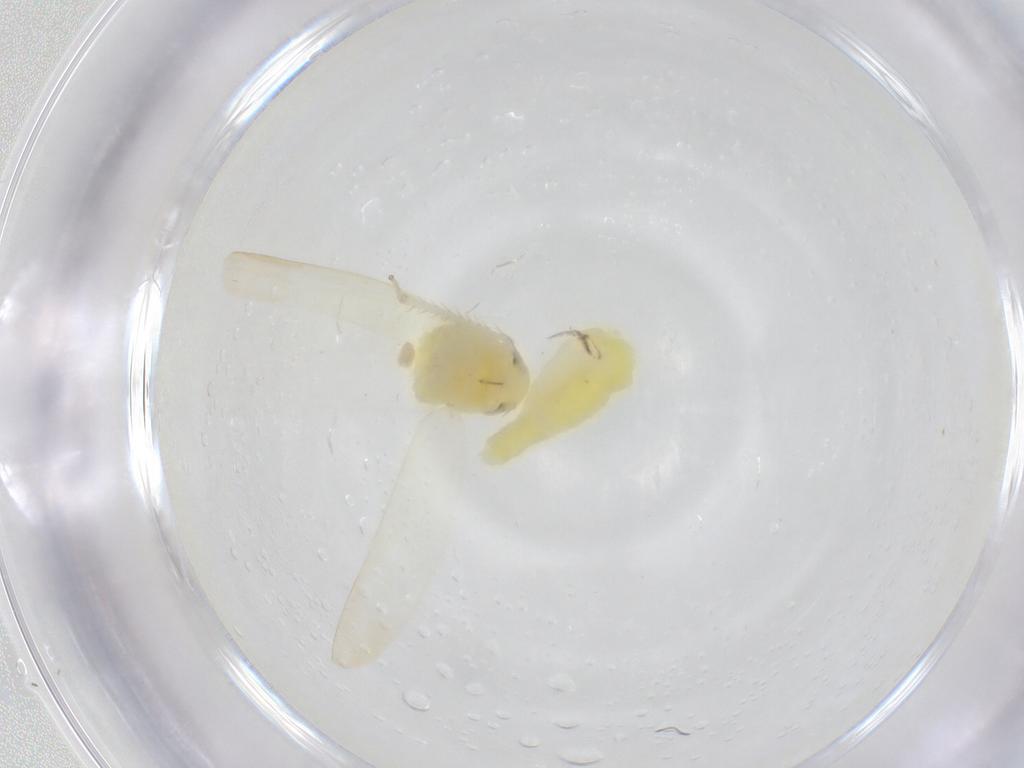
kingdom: Animalia
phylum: Arthropoda
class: Insecta
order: Hemiptera
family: Cicadellidae
